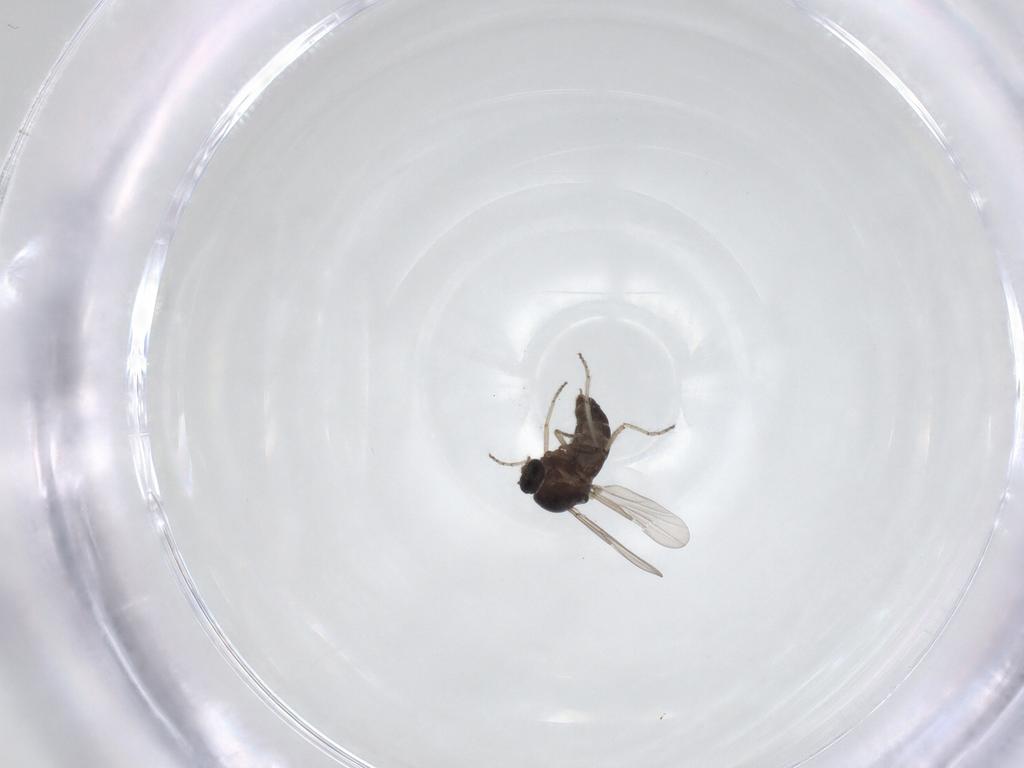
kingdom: Animalia
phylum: Arthropoda
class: Insecta
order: Diptera
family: Ceratopogonidae
